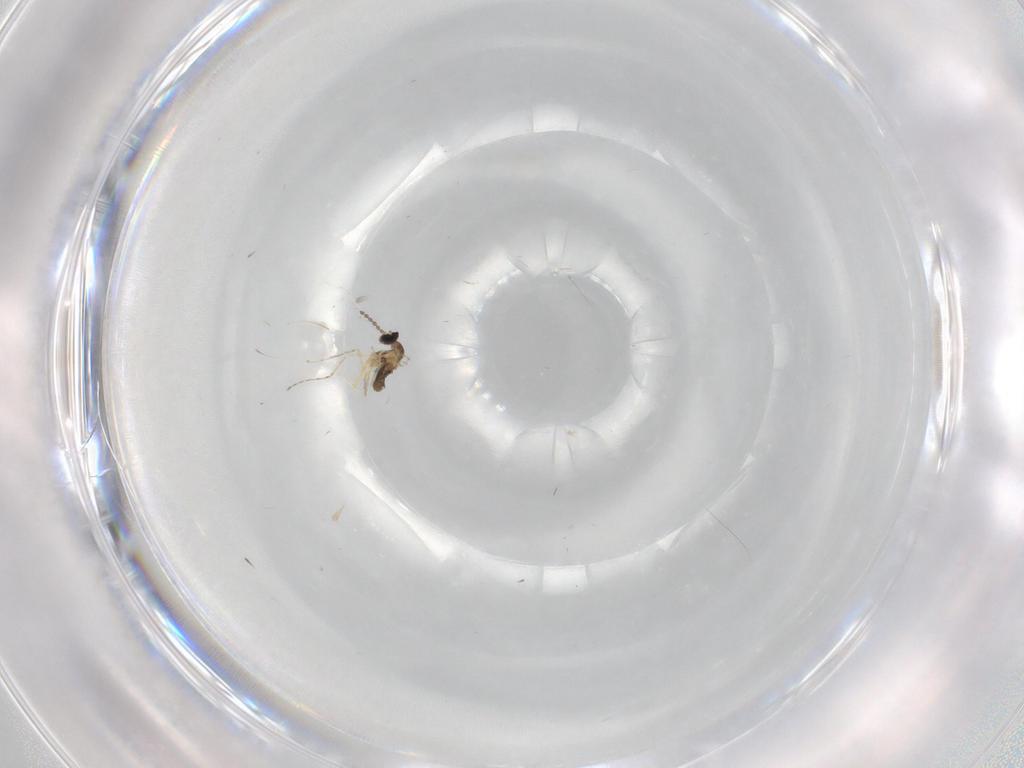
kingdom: Animalia
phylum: Arthropoda
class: Insecta
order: Diptera
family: Cecidomyiidae
